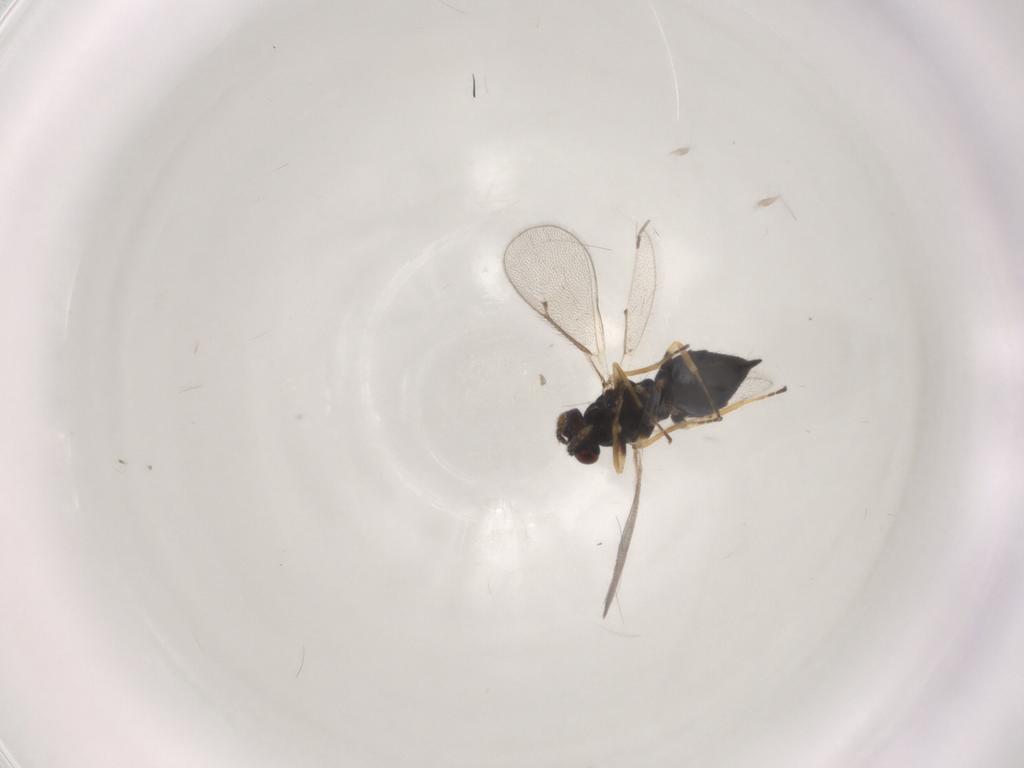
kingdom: Animalia
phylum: Arthropoda
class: Insecta
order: Hymenoptera
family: Eulophidae
